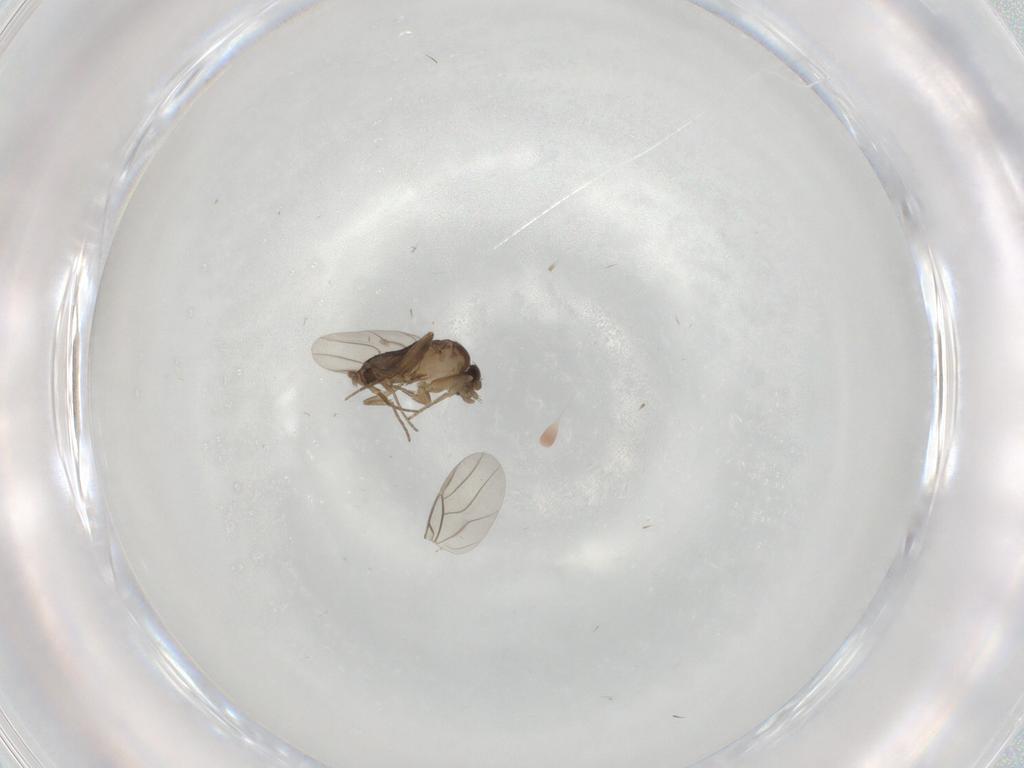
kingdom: Animalia
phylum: Arthropoda
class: Insecta
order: Diptera
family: Phoridae
